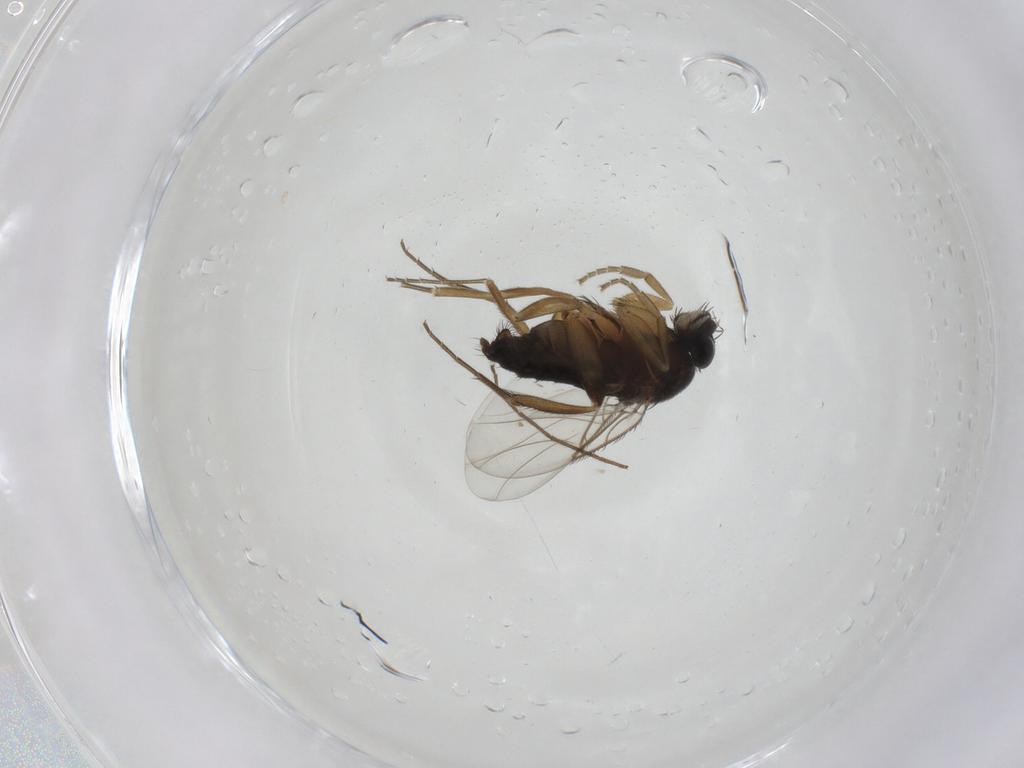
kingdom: Animalia
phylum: Arthropoda
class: Insecta
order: Diptera
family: Phoridae
